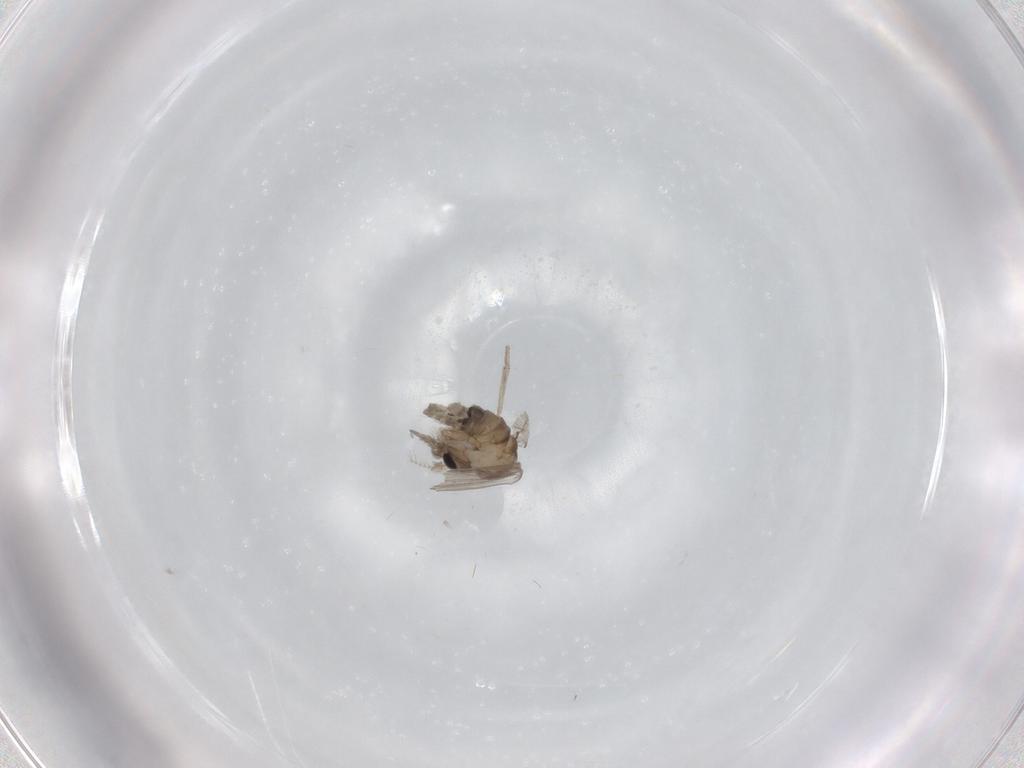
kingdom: Animalia
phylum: Arthropoda
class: Insecta
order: Diptera
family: Psychodidae
